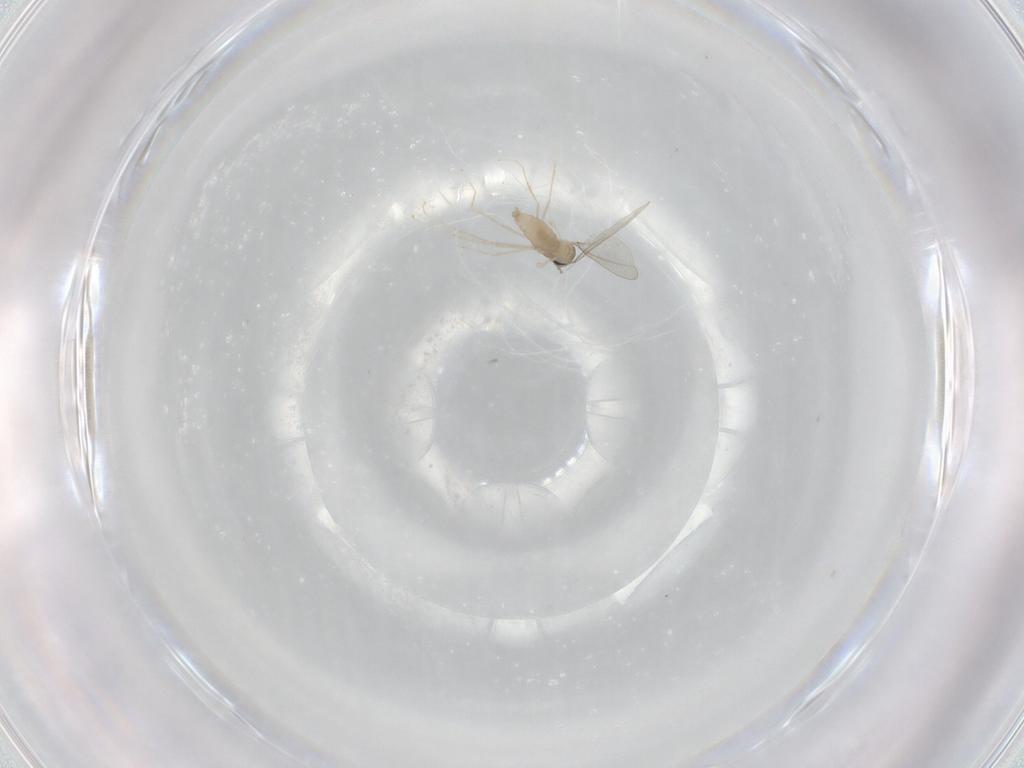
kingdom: Animalia
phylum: Arthropoda
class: Insecta
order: Diptera
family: Cecidomyiidae
